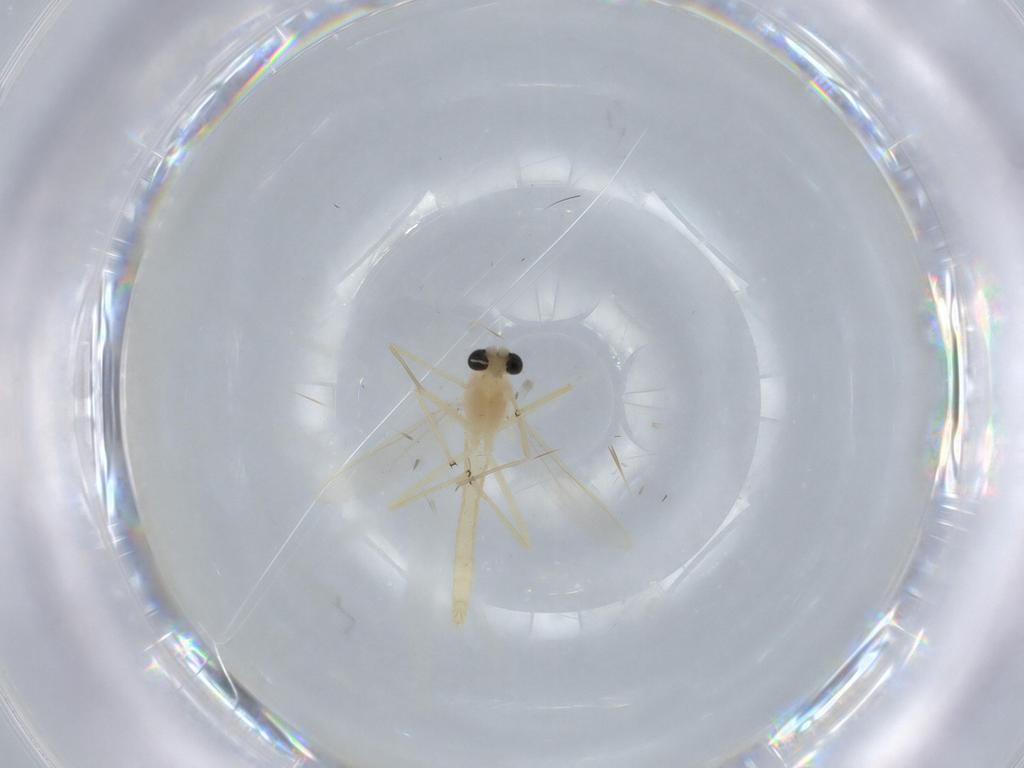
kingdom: Animalia
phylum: Arthropoda
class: Insecta
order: Diptera
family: Chironomidae
